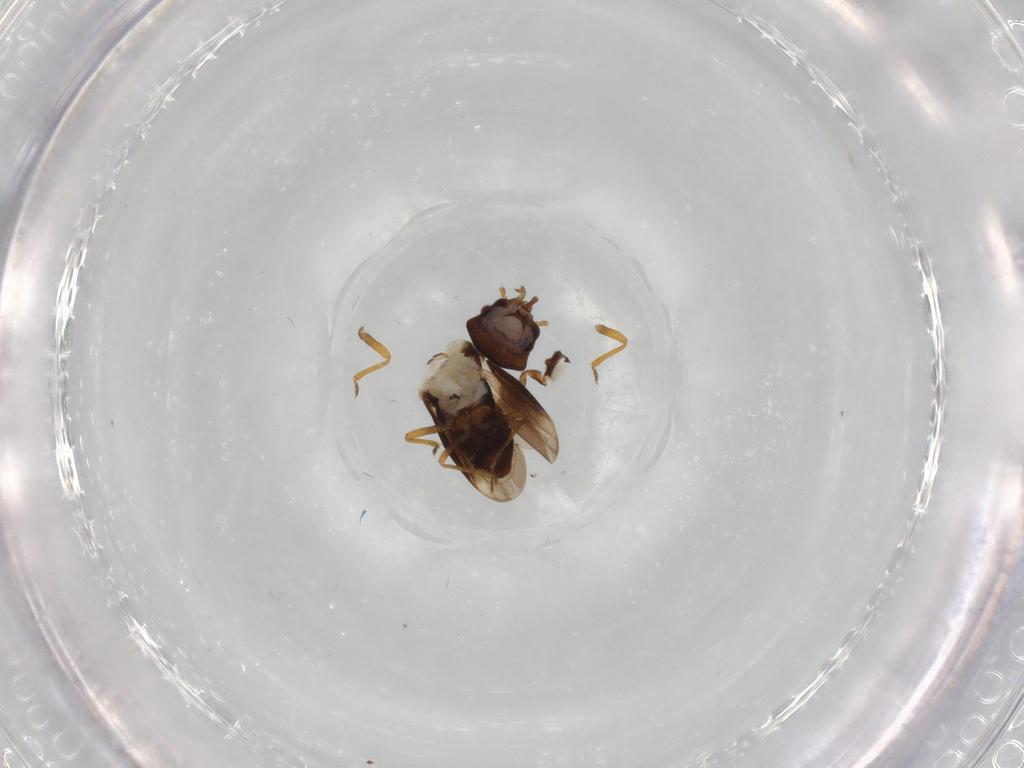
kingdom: Animalia
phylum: Arthropoda
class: Insecta
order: Hemiptera
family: Schizopteridae
